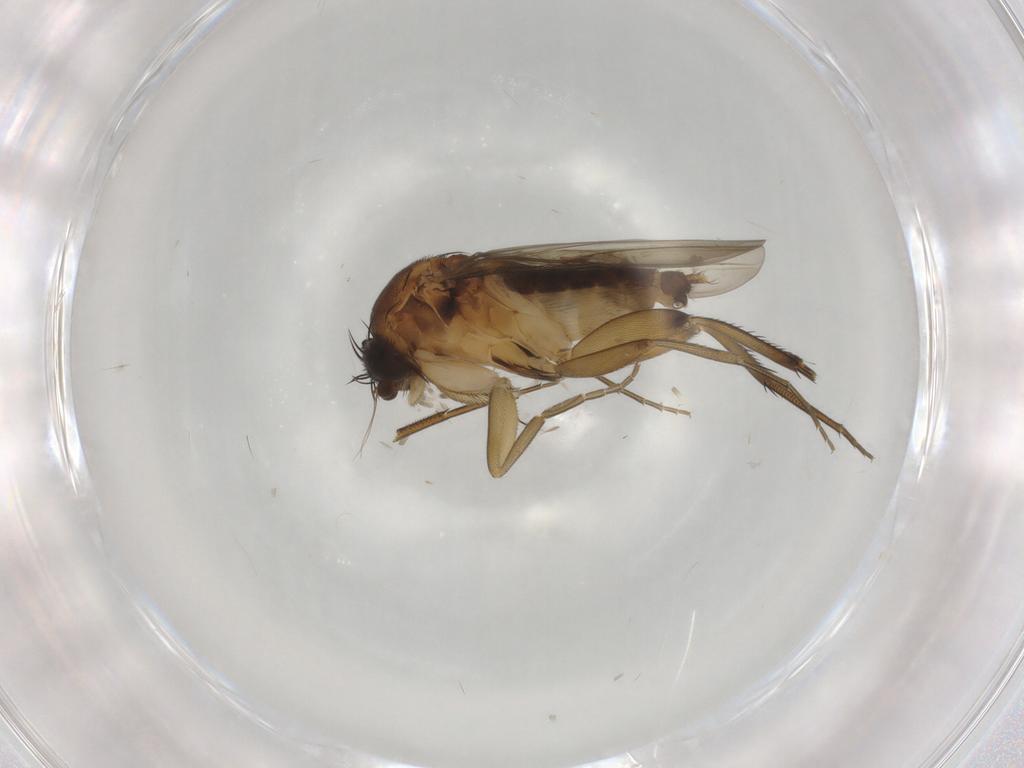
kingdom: Animalia
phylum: Arthropoda
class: Insecta
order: Diptera
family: Phoridae
